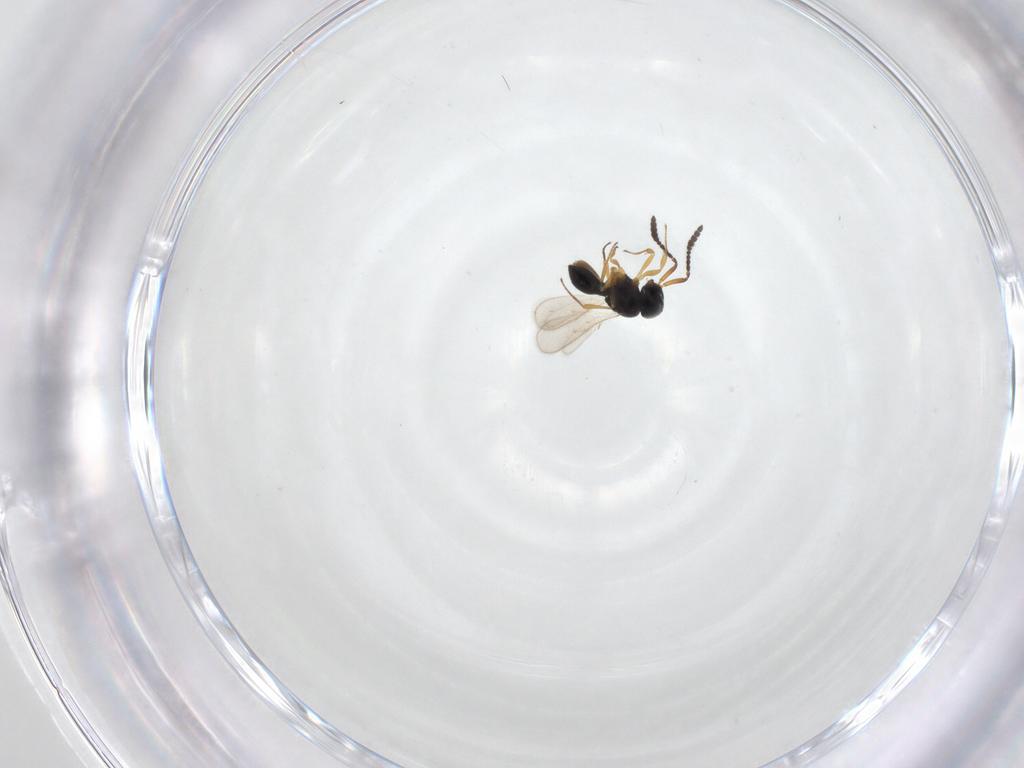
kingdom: Animalia
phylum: Arthropoda
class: Insecta
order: Hymenoptera
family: Scelionidae
